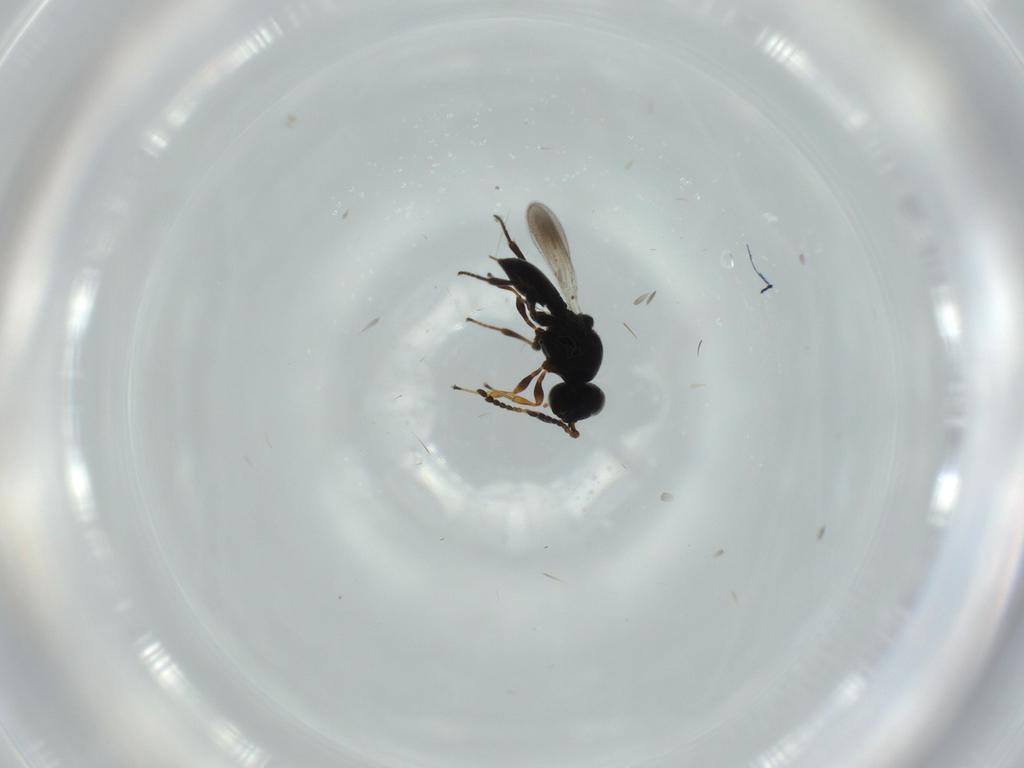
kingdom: Animalia
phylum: Arthropoda
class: Insecta
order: Hymenoptera
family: Platygastridae
